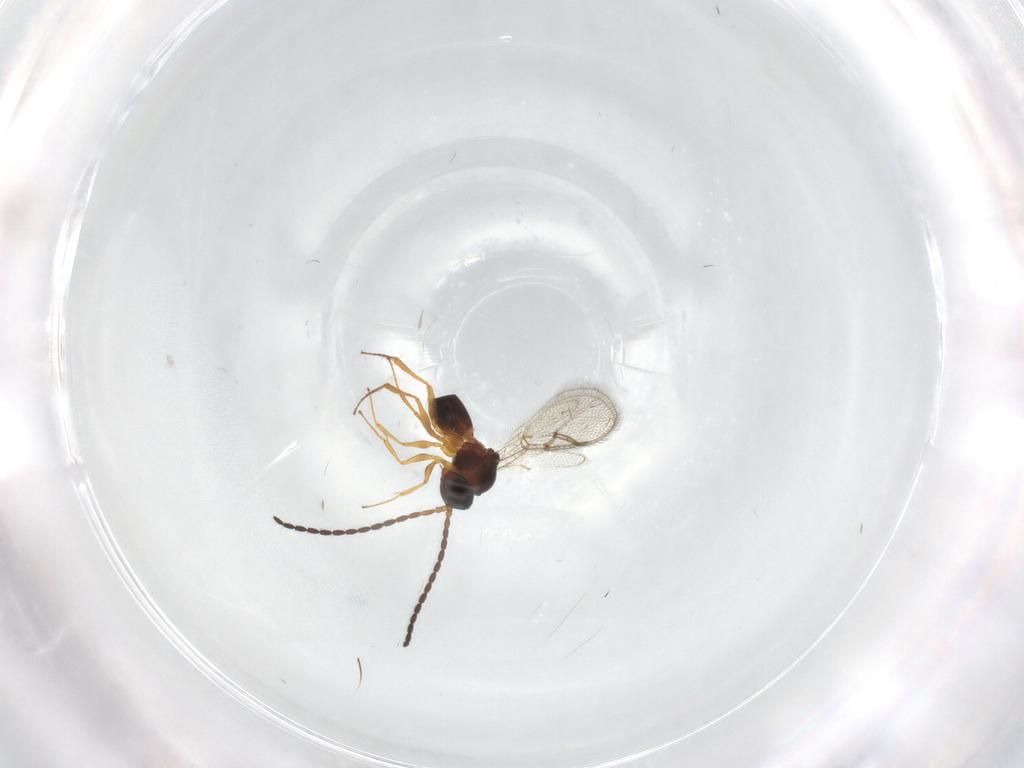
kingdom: Animalia
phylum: Arthropoda
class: Insecta
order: Hymenoptera
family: Figitidae
